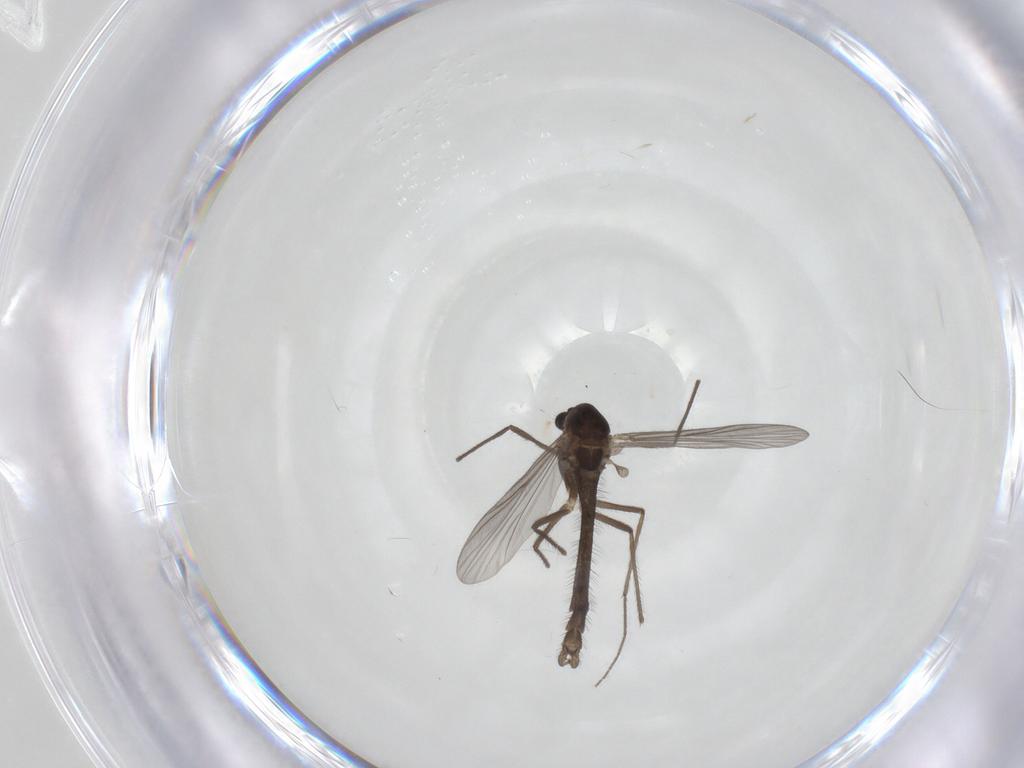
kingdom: Animalia
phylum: Arthropoda
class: Insecta
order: Diptera
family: Chironomidae
